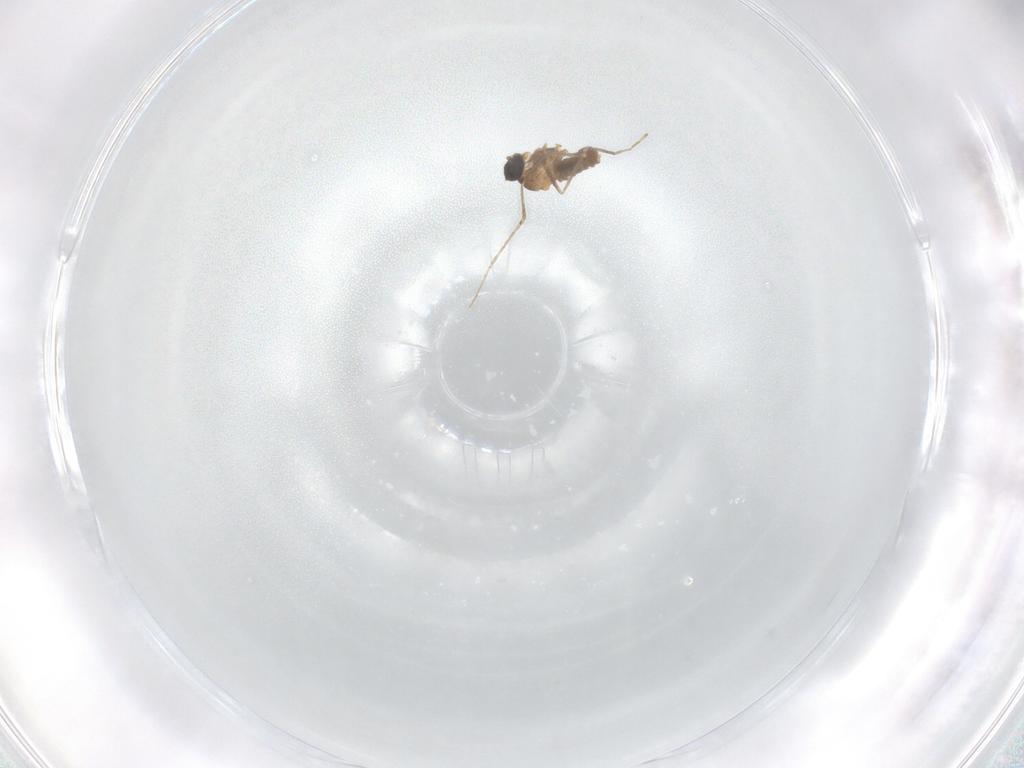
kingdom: Animalia
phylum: Arthropoda
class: Insecta
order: Diptera
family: Cecidomyiidae
